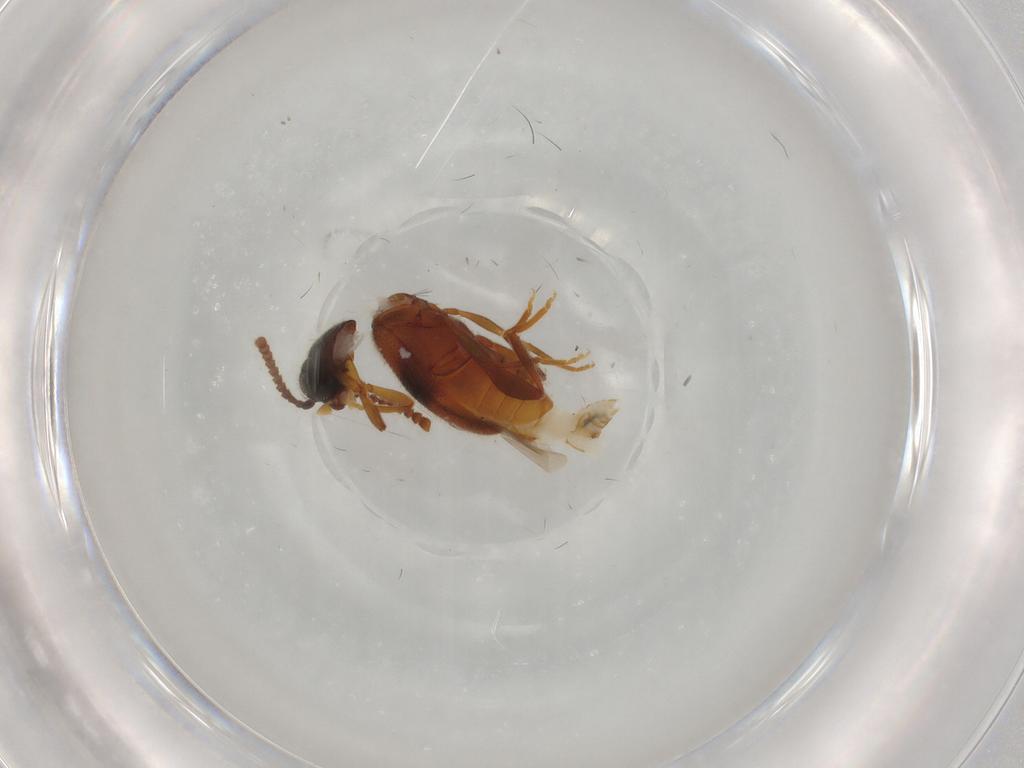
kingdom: Animalia
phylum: Arthropoda
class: Insecta
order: Coleoptera
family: Aderidae
